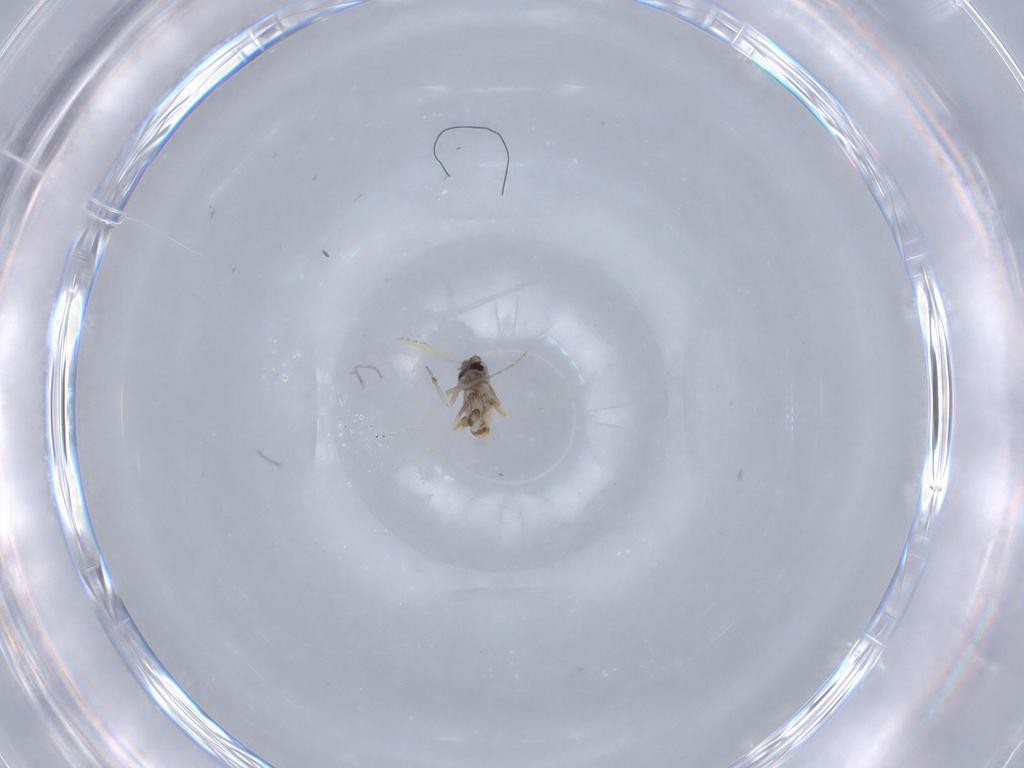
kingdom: Animalia
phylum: Arthropoda
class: Insecta
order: Diptera
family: Ceratopogonidae
